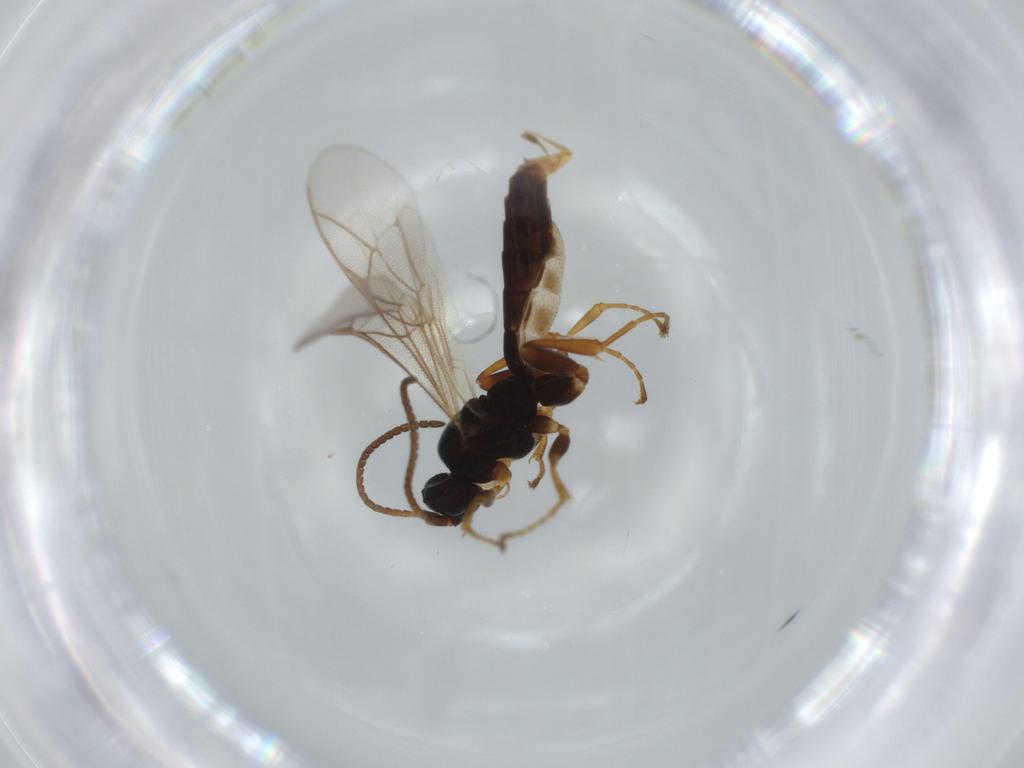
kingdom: Animalia
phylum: Arthropoda
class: Insecta
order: Hymenoptera
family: Ichneumonidae
